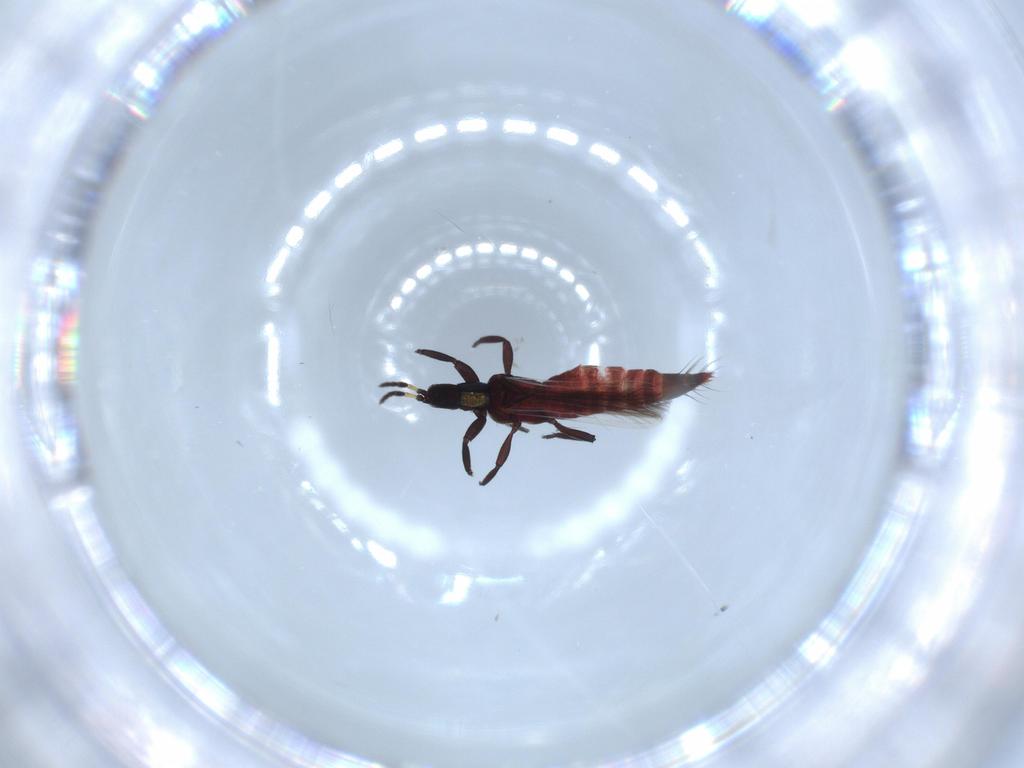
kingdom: Animalia
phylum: Arthropoda
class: Insecta
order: Thysanoptera
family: Aeolothripidae
